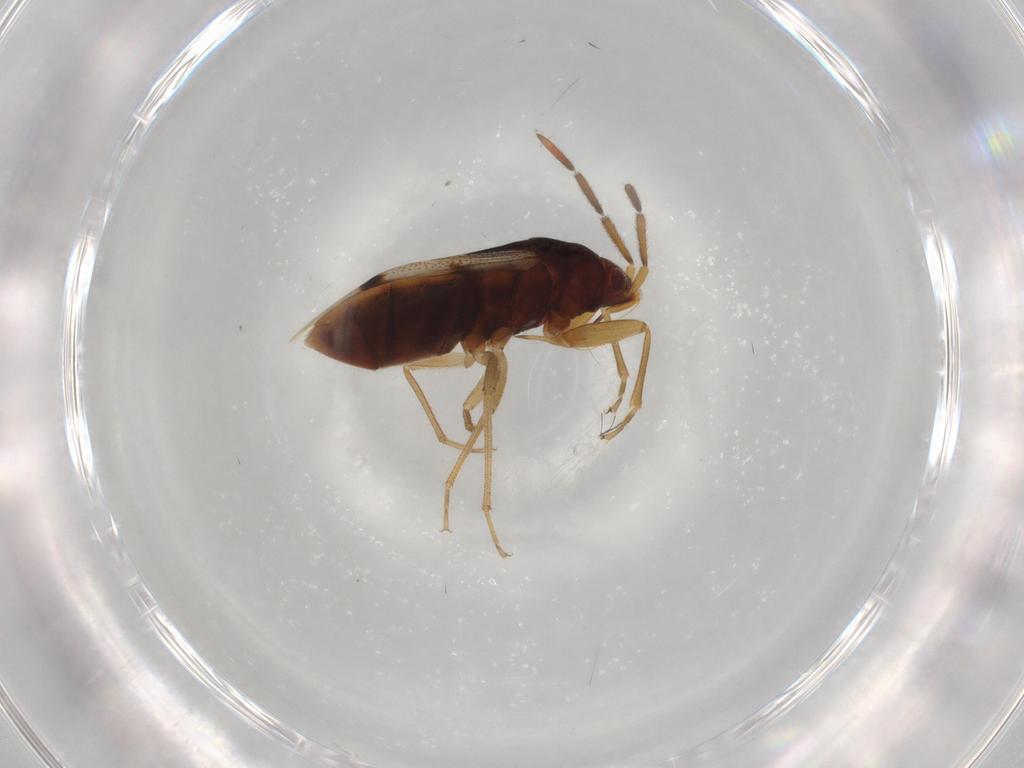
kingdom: Animalia
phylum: Arthropoda
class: Insecta
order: Hemiptera
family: Rhyparochromidae
